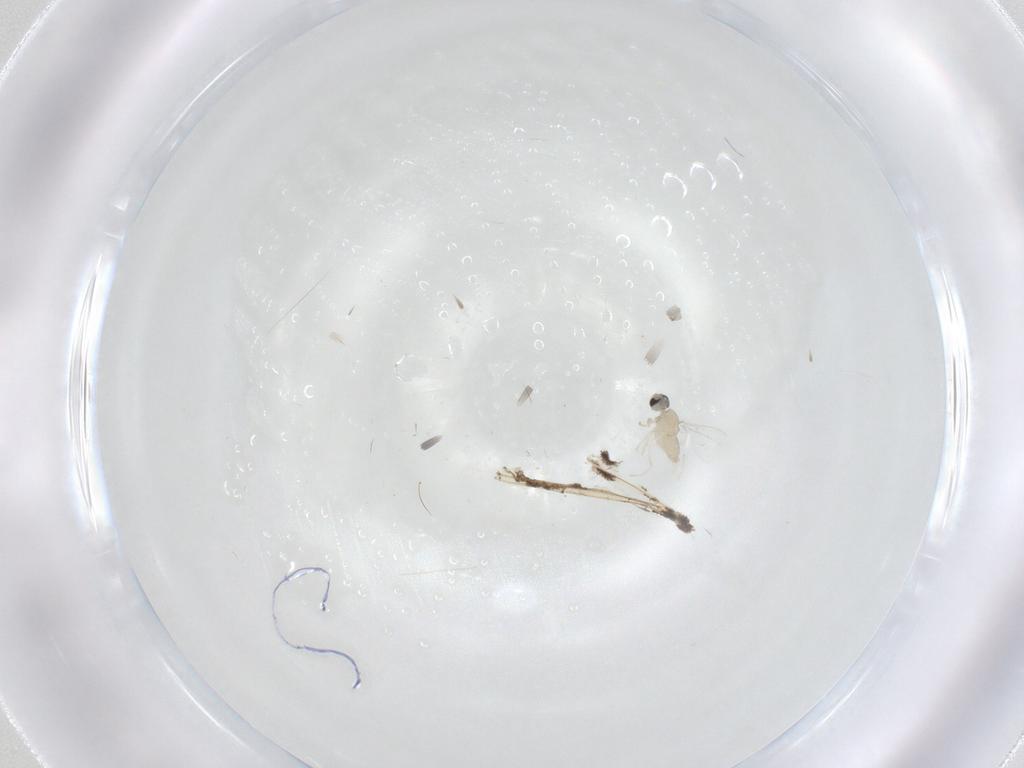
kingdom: Animalia
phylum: Arthropoda
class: Insecta
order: Diptera
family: Cecidomyiidae
